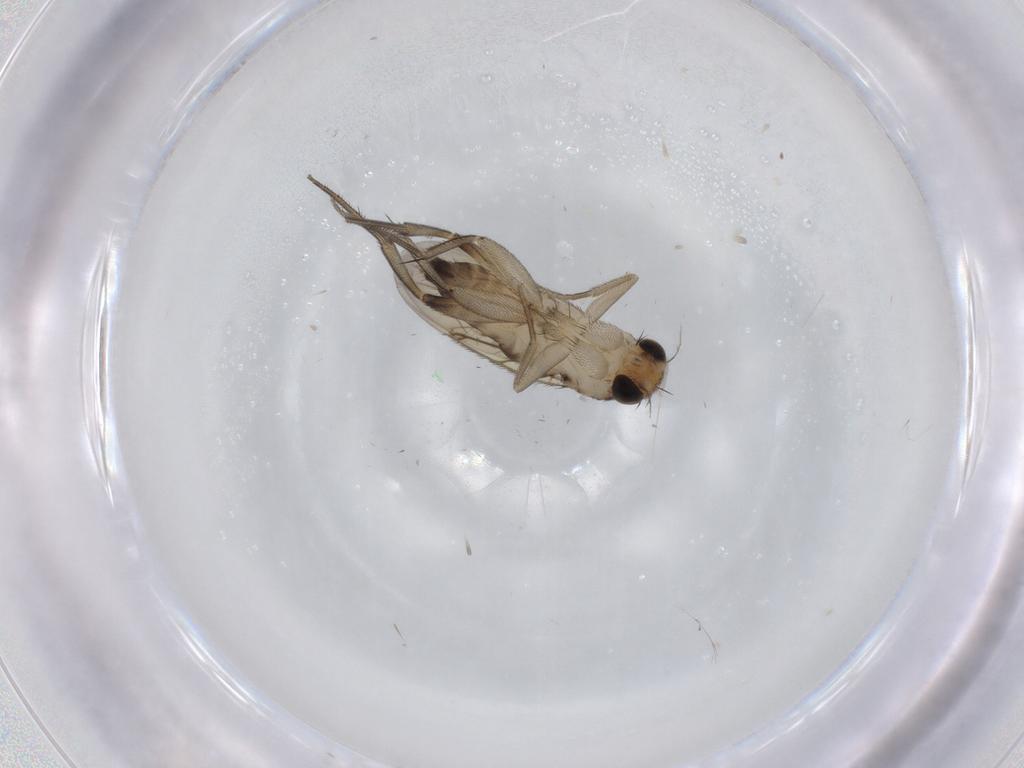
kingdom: Animalia
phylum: Arthropoda
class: Insecta
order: Diptera
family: Phoridae
